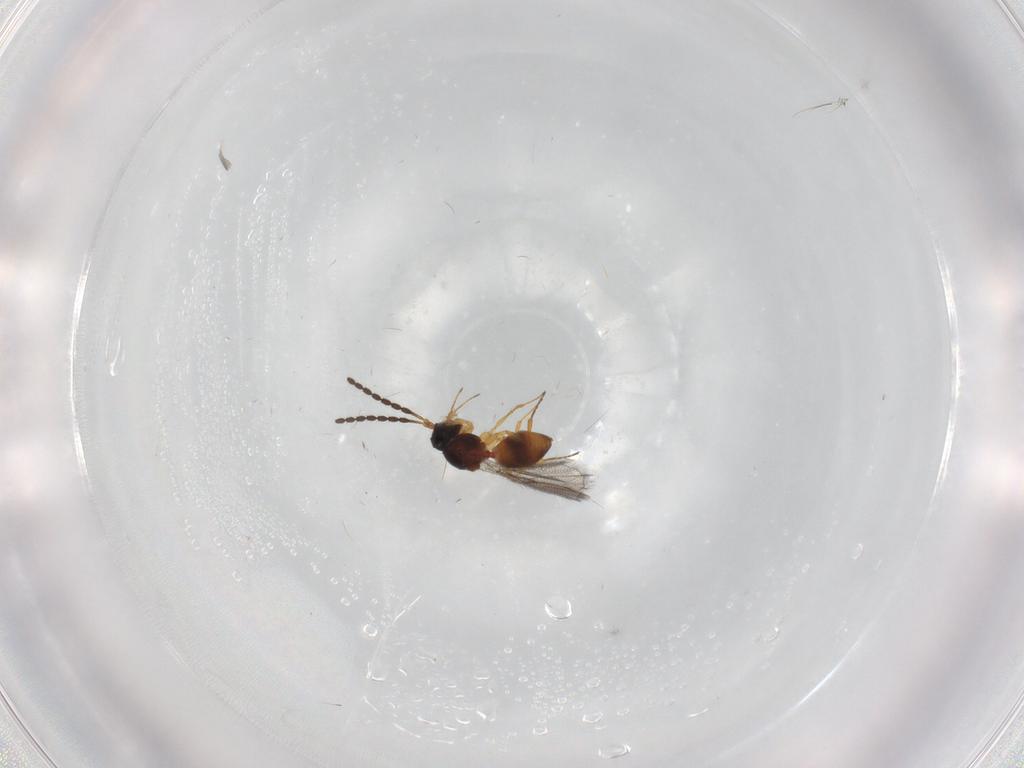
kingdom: Animalia
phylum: Arthropoda
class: Insecta
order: Hymenoptera
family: Figitidae
